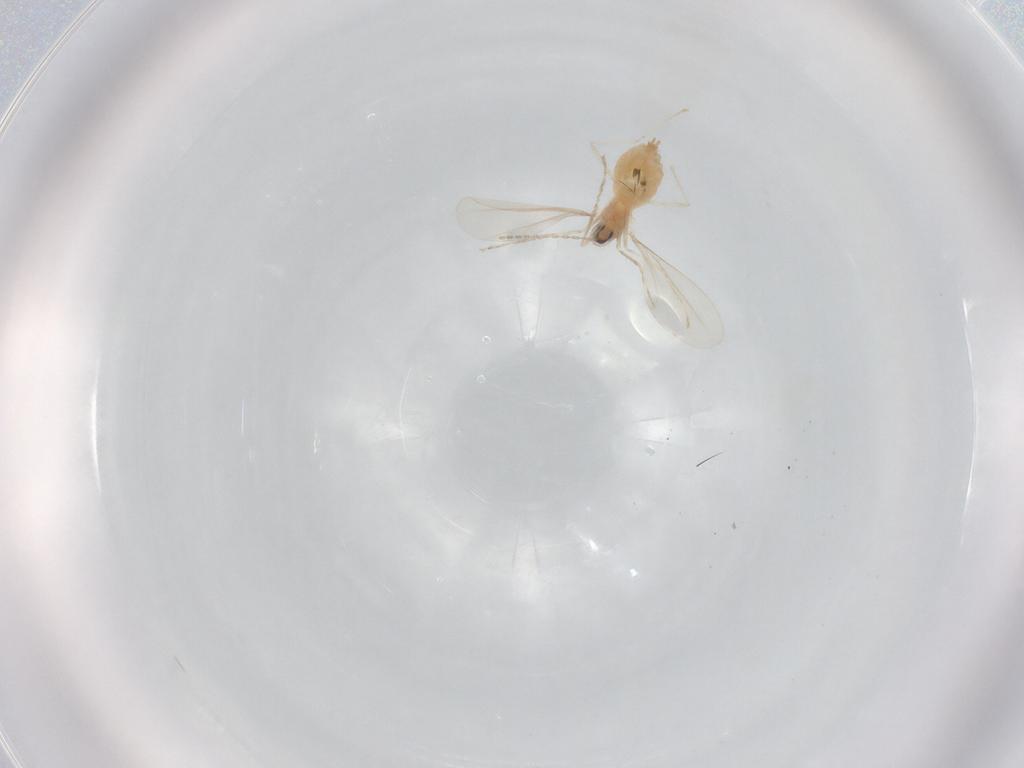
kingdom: Animalia
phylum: Arthropoda
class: Insecta
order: Diptera
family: Cecidomyiidae
